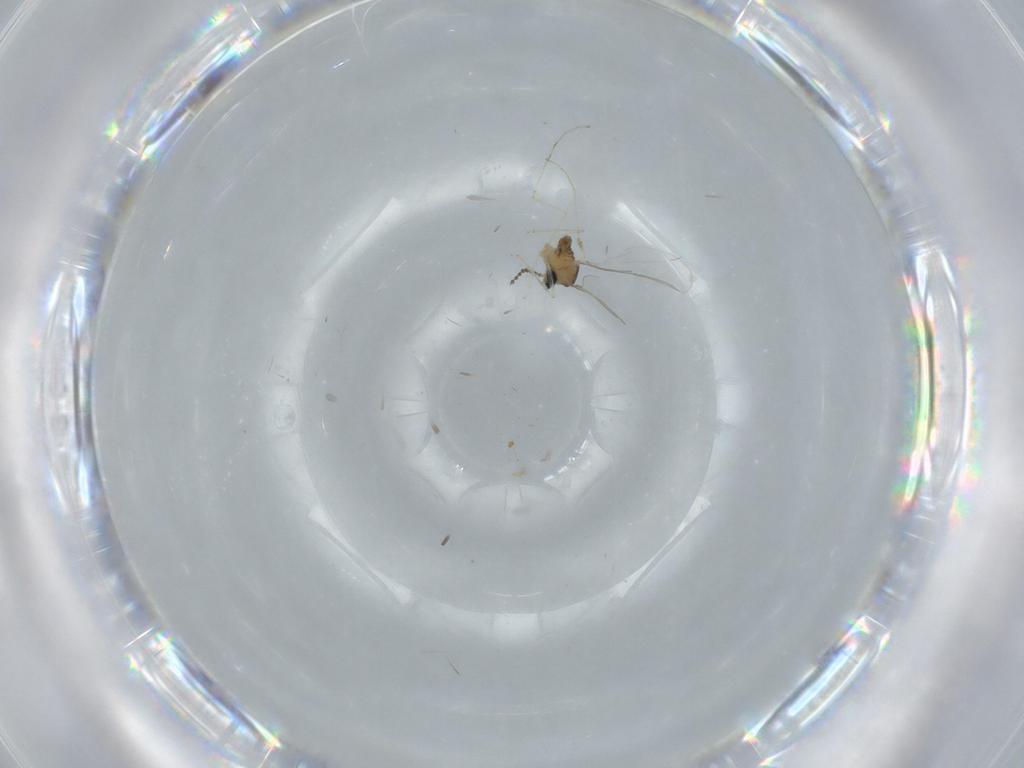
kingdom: Animalia
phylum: Arthropoda
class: Insecta
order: Diptera
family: Cecidomyiidae
